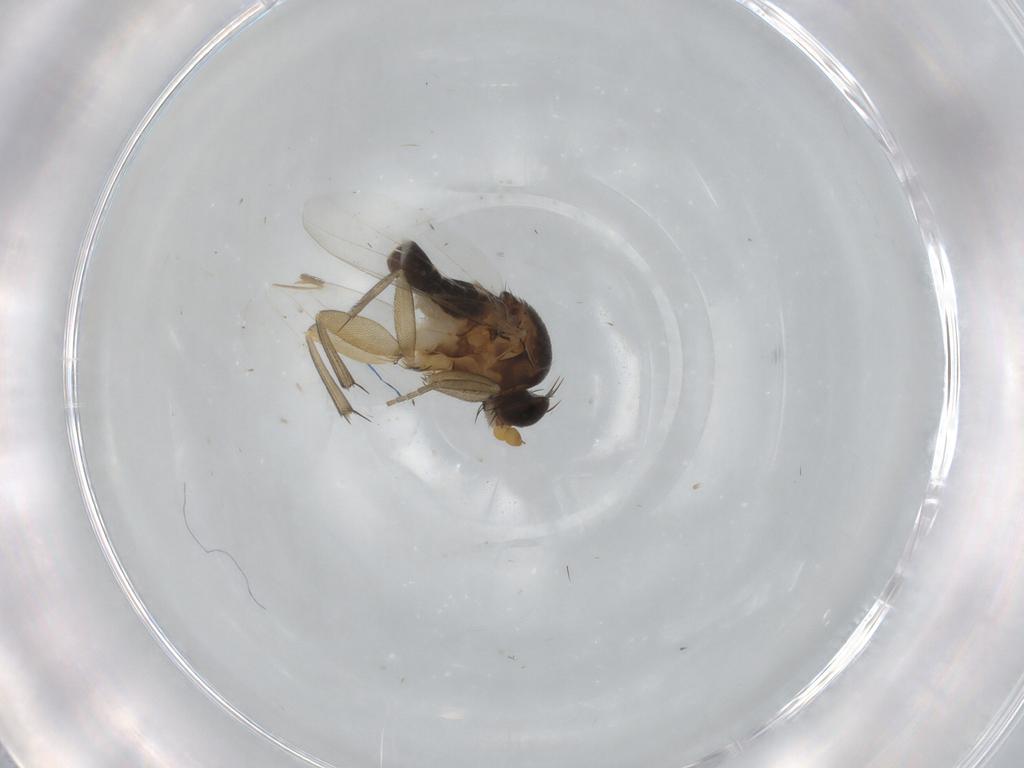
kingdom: Animalia
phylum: Arthropoda
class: Insecta
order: Diptera
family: Phoridae
